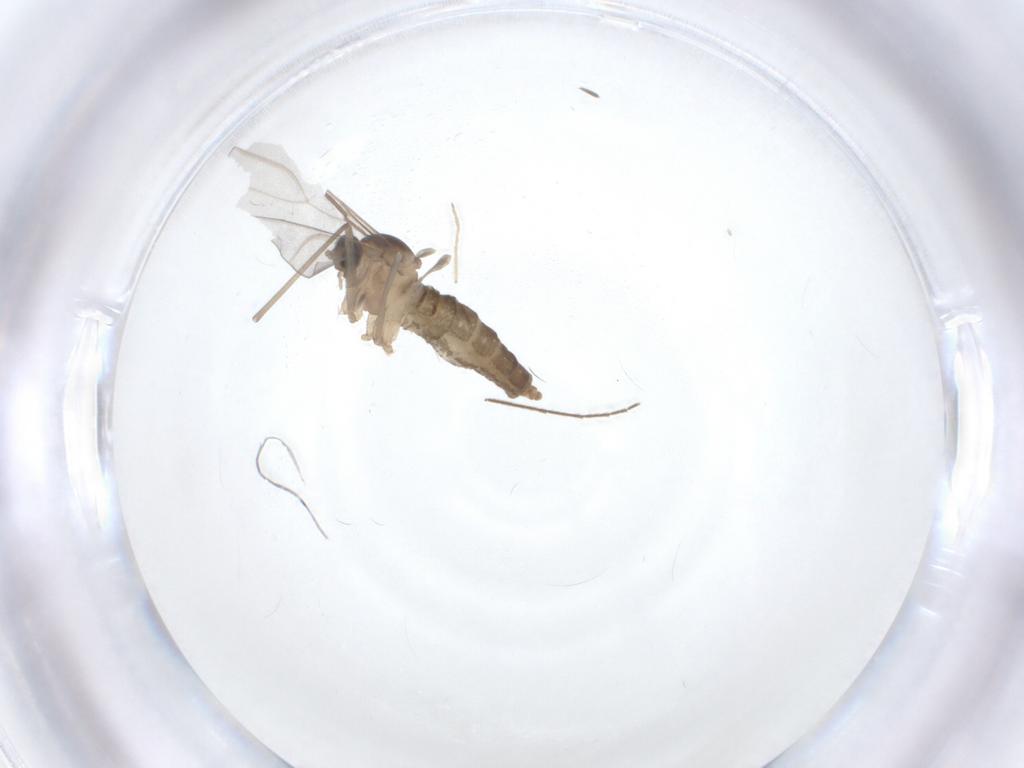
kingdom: Animalia
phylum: Arthropoda
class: Insecta
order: Diptera
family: Cecidomyiidae
